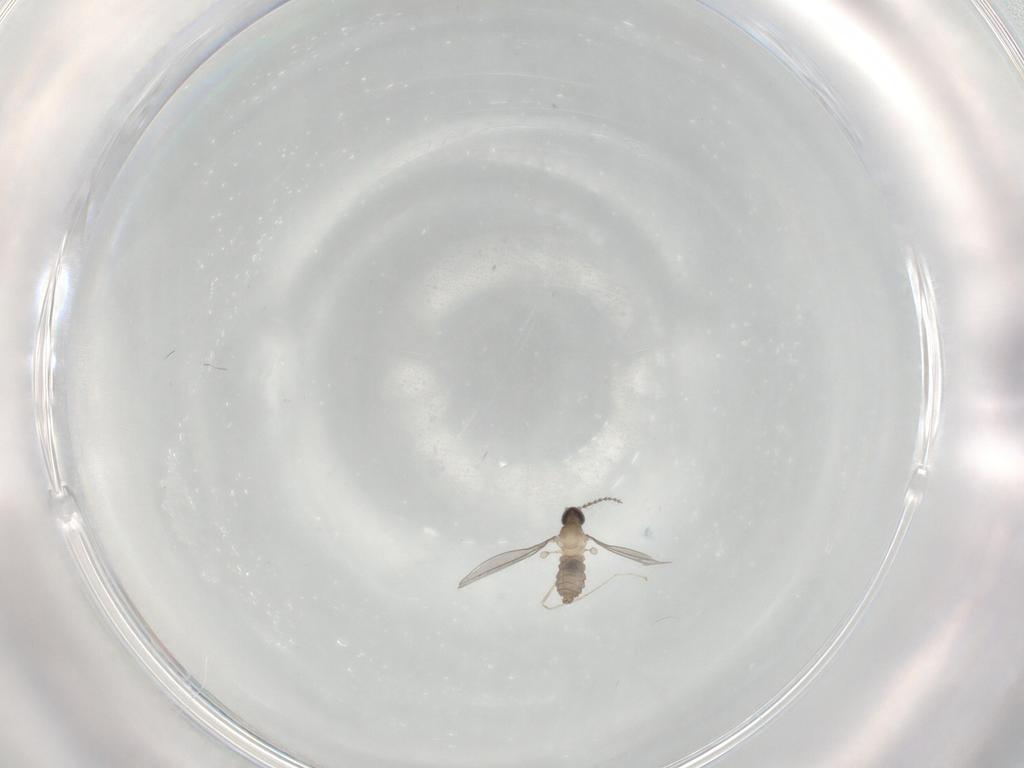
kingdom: Animalia
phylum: Arthropoda
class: Insecta
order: Diptera
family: Cecidomyiidae
